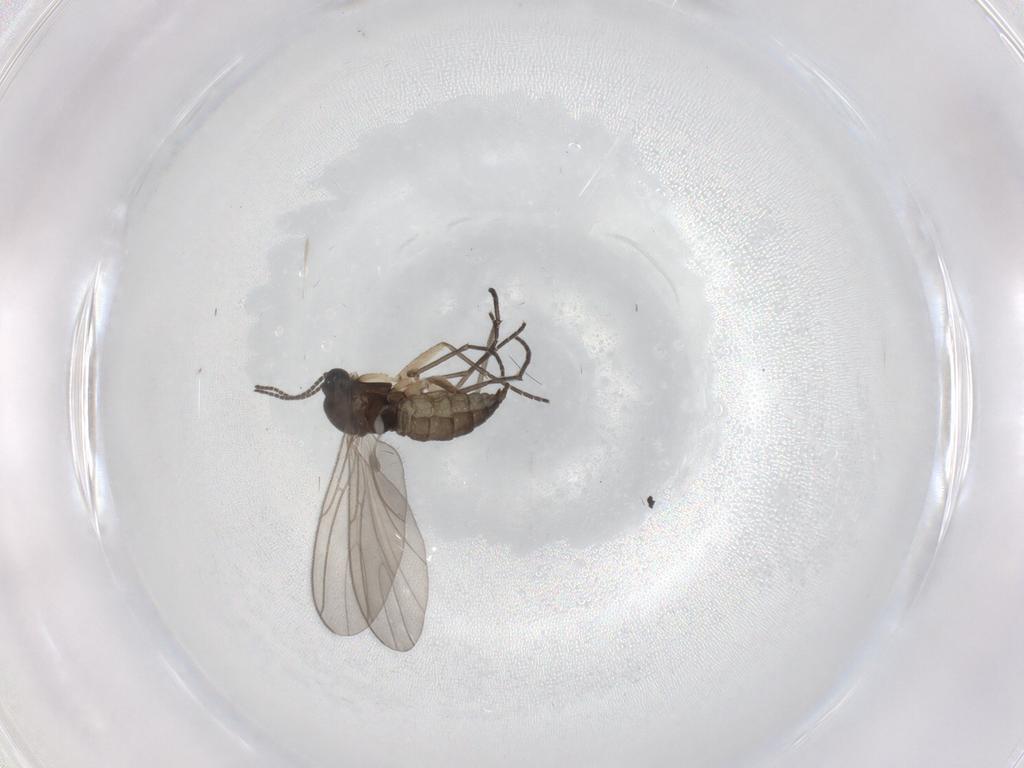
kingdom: Animalia
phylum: Arthropoda
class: Insecta
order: Diptera
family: Sciaridae
